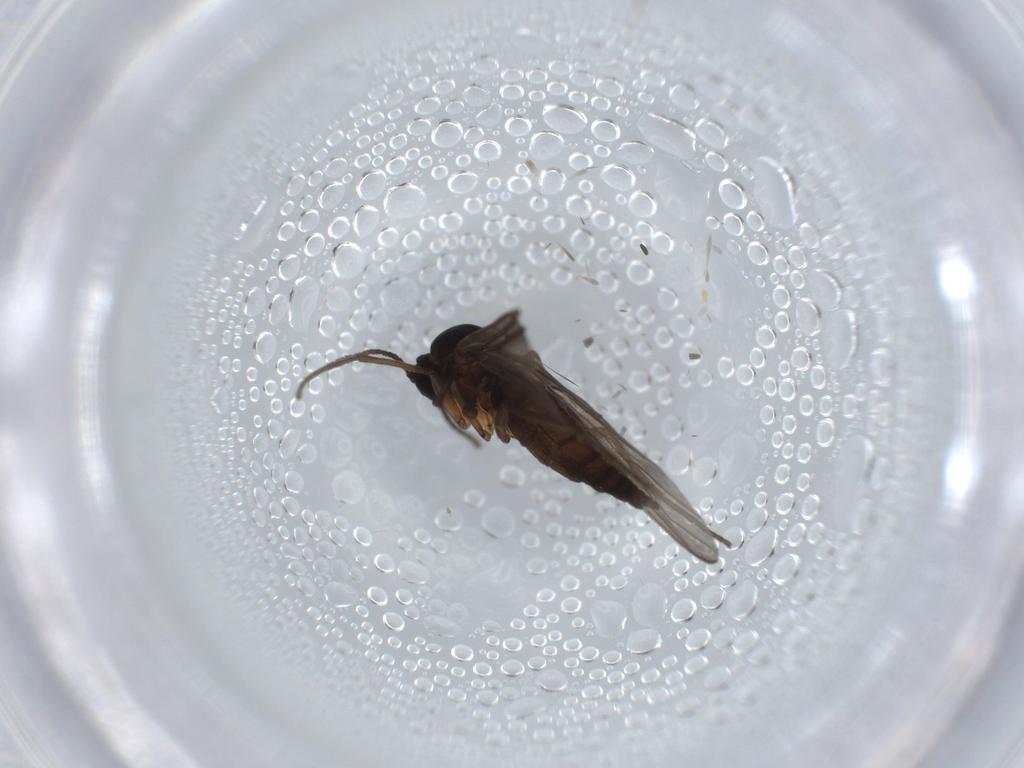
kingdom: Animalia
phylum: Arthropoda
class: Insecta
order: Diptera
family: Sciaridae
